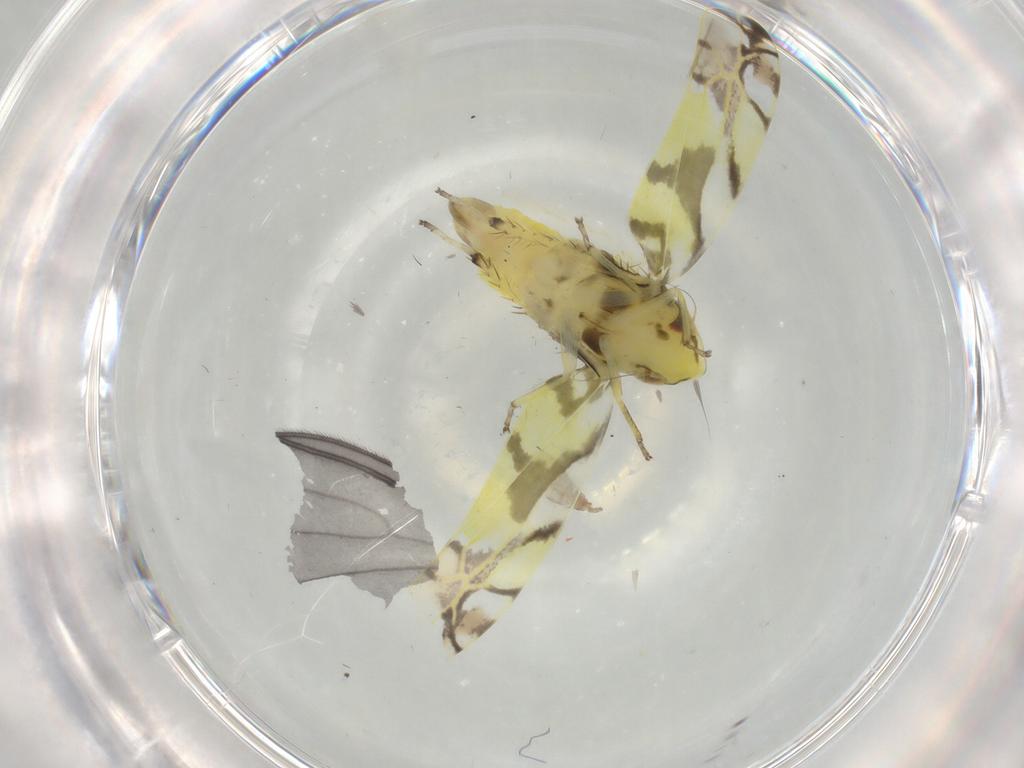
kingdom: Animalia
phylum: Arthropoda
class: Insecta
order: Hemiptera
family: Cicadellidae
